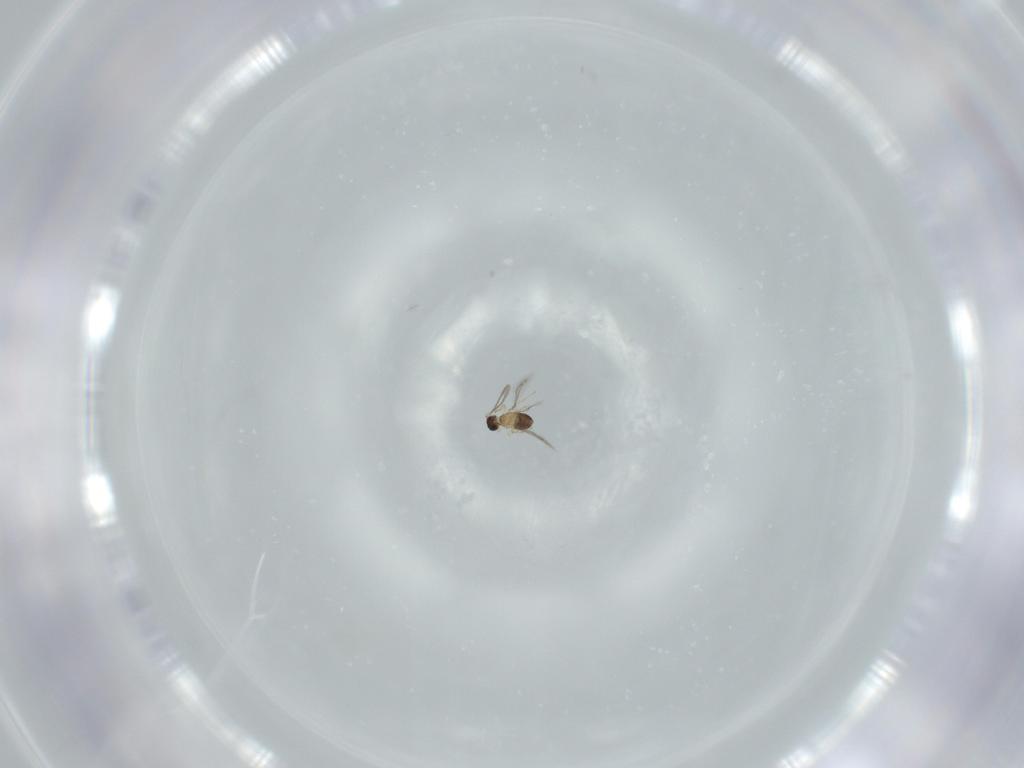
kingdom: Animalia
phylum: Arthropoda
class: Insecta
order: Hymenoptera
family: Mymaridae
